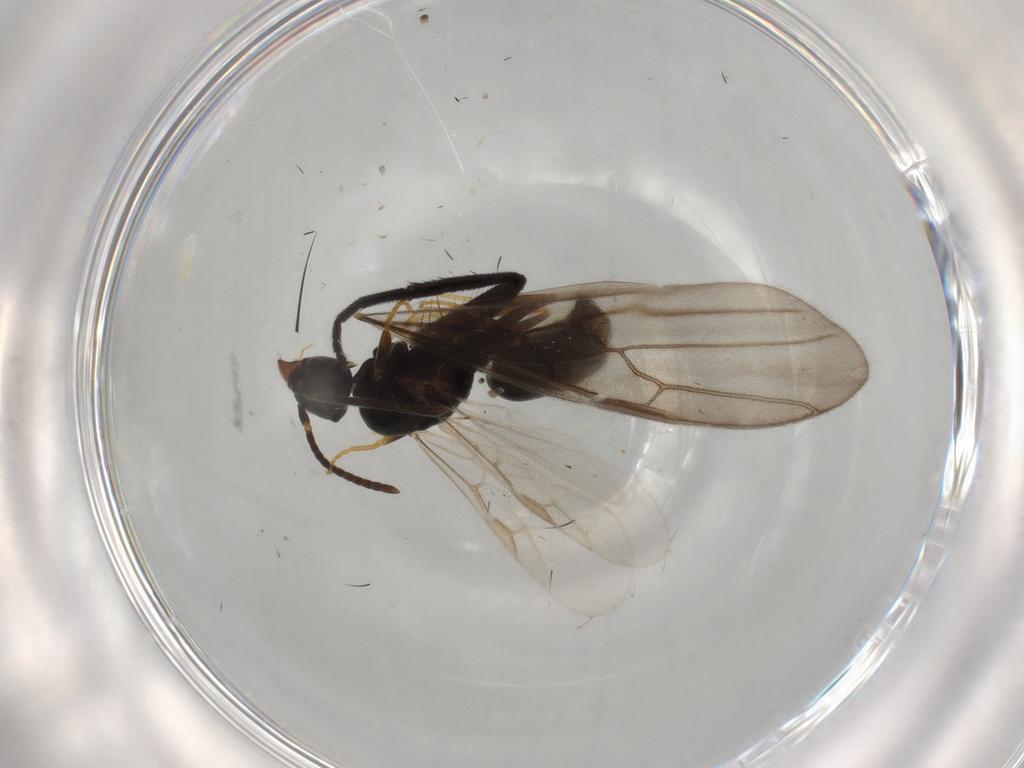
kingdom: Animalia
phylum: Arthropoda
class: Insecta
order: Hymenoptera
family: Formicidae
